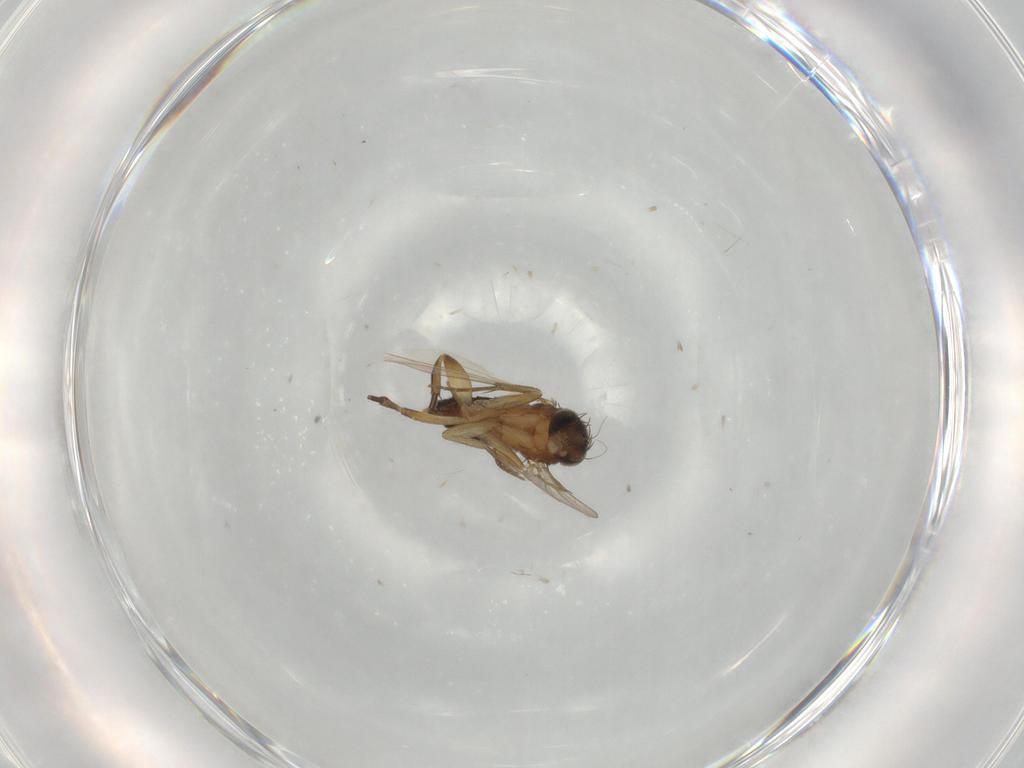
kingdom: Animalia
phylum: Arthropoda
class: Insecta
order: Diptera
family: Phoridae
